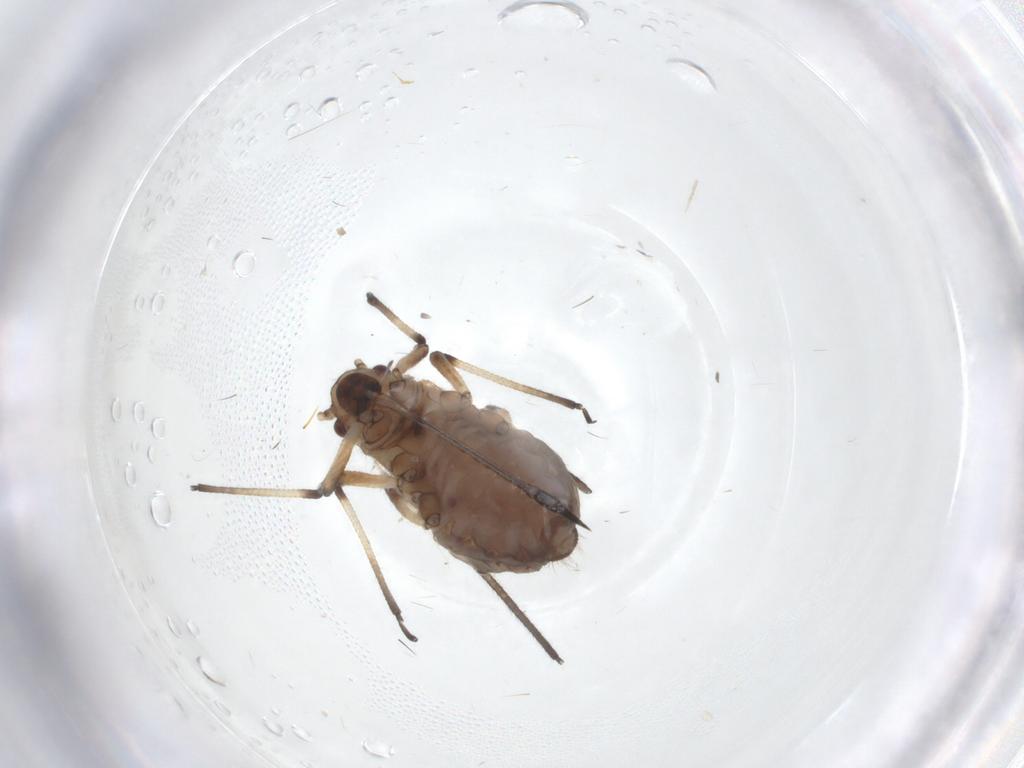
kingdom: Animalia
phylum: Arthropoda
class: Insecta
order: Hemiptera
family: Aphididae
